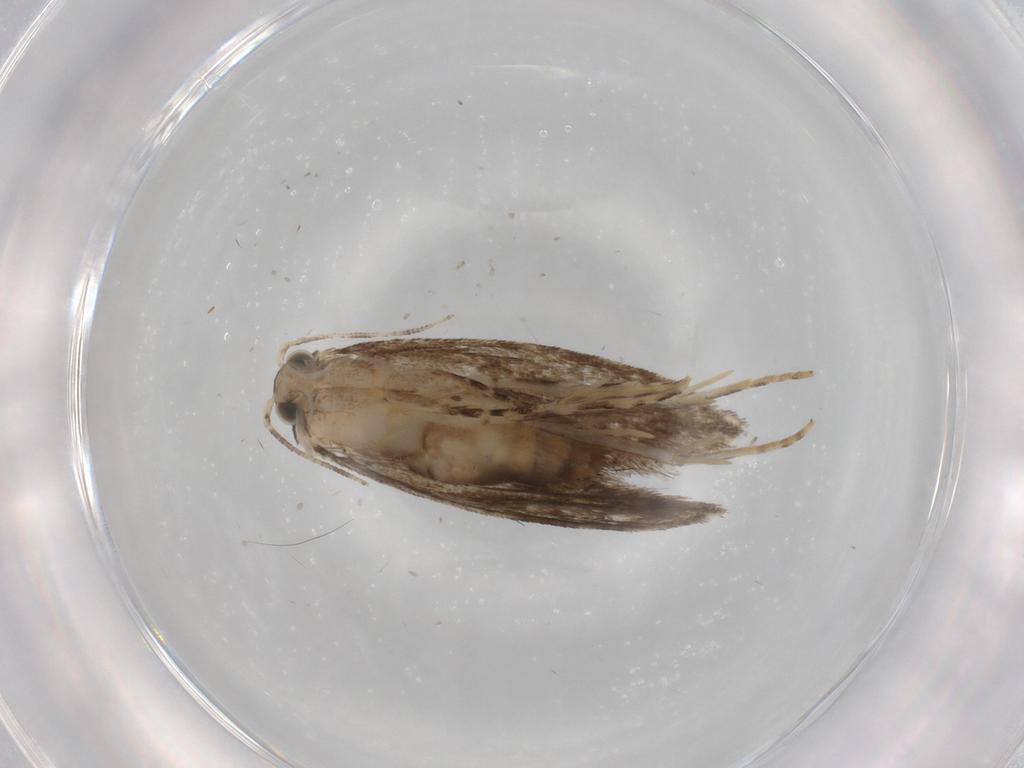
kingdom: Animalia
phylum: Arthropoda
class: Insecta
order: Lepidoptera
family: Tineidae
